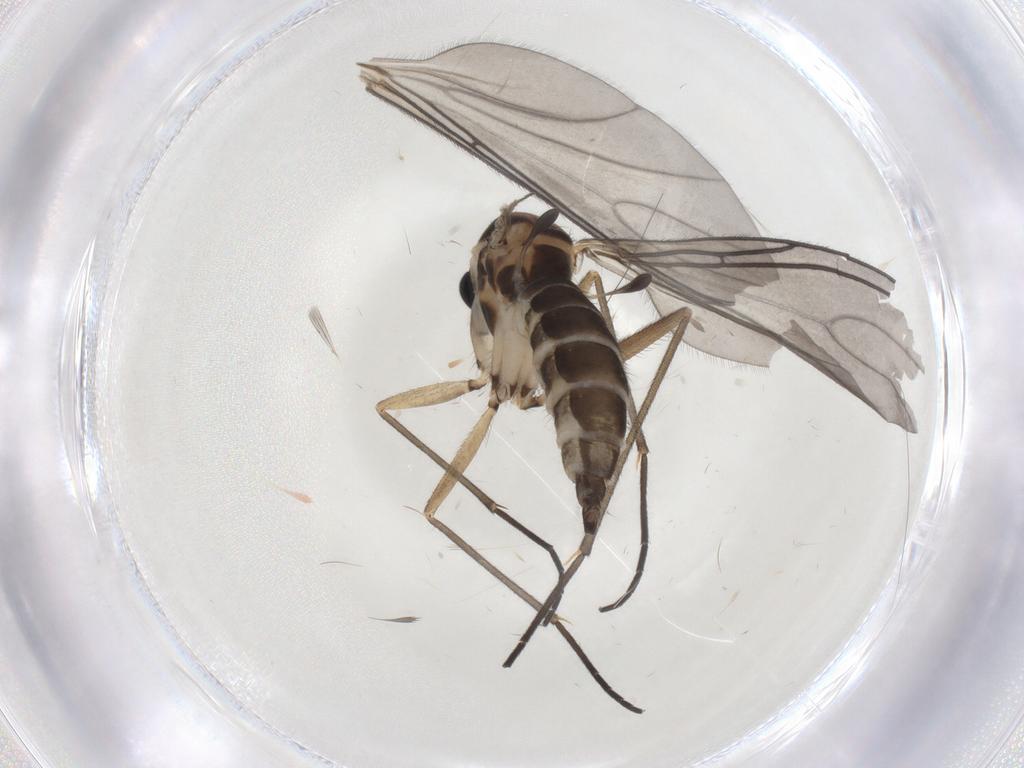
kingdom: Animalia
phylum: Arthropoda
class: Insecta
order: Diptera
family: Sciaridae
